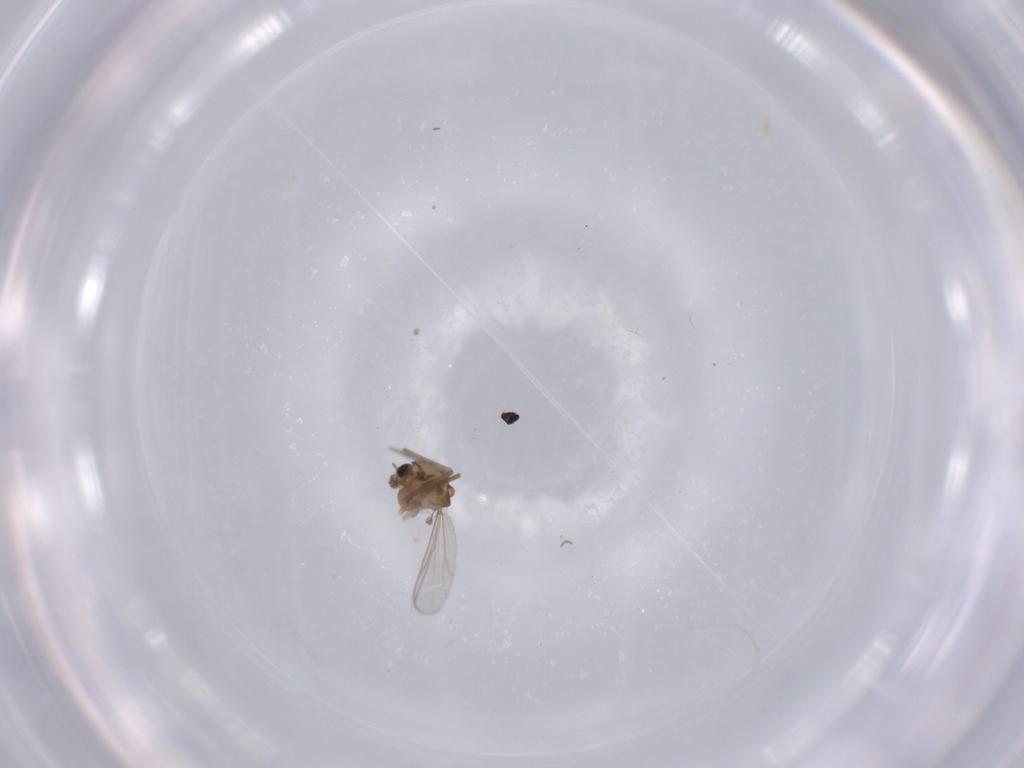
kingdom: Animalia
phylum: Arthropoda
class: Insecta
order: Diptera
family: Chironomidae
